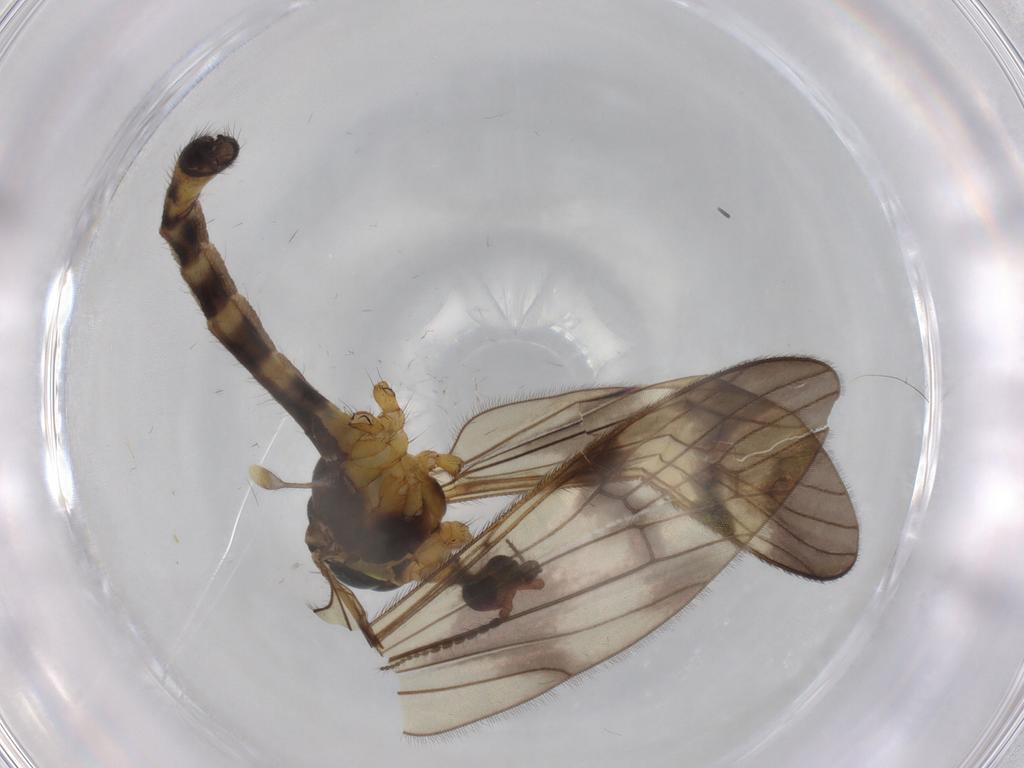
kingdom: Animalia
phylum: Arthropoda
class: Insecta
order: Diptera
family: Limoniidae
